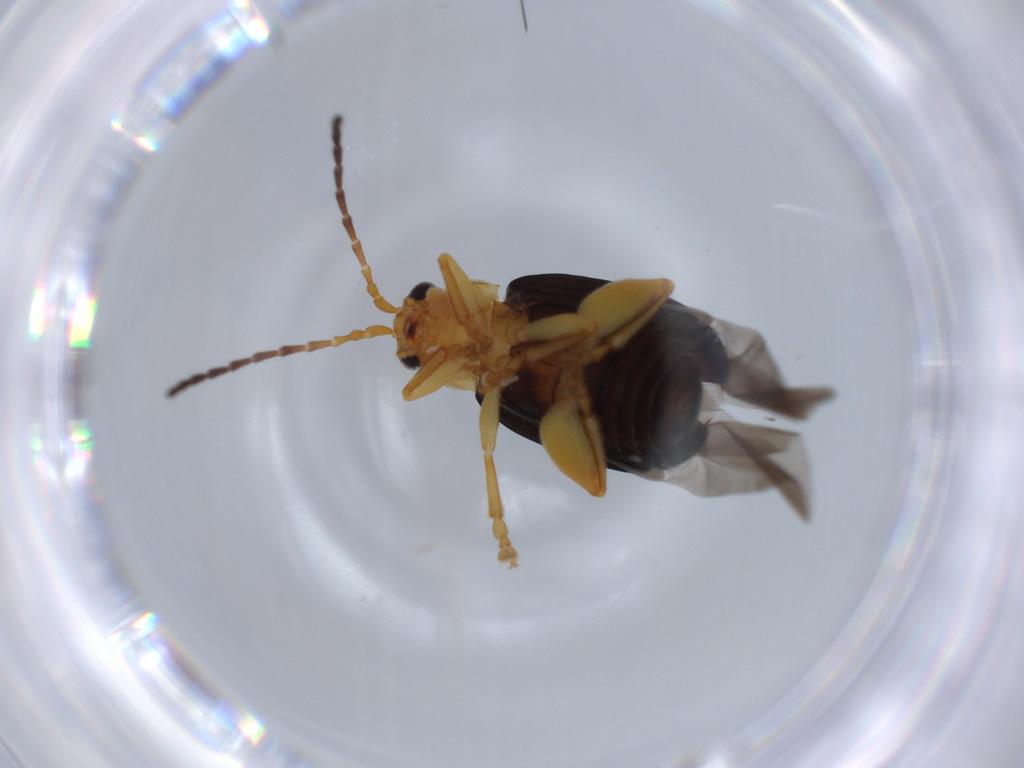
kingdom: Animalia
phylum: Arthropoda
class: Insecta
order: Coleoptera
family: Chrysomelidae
